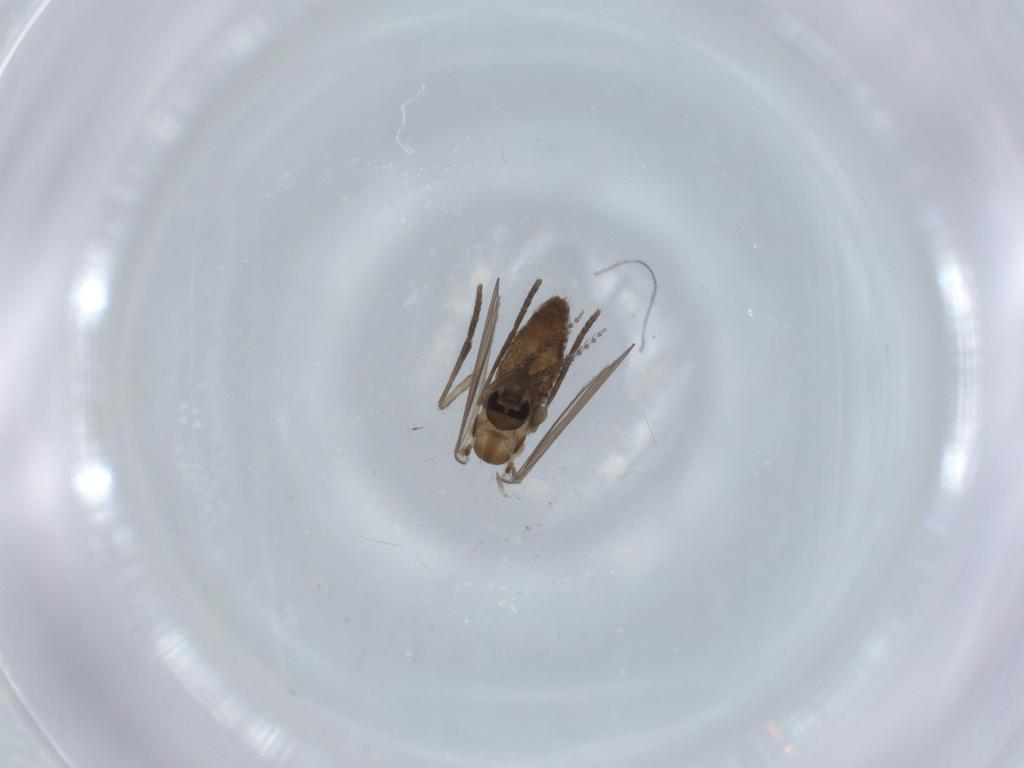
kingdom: Animalia
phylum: Arthropoda
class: Insecta
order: Diptera
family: Psychodidae
